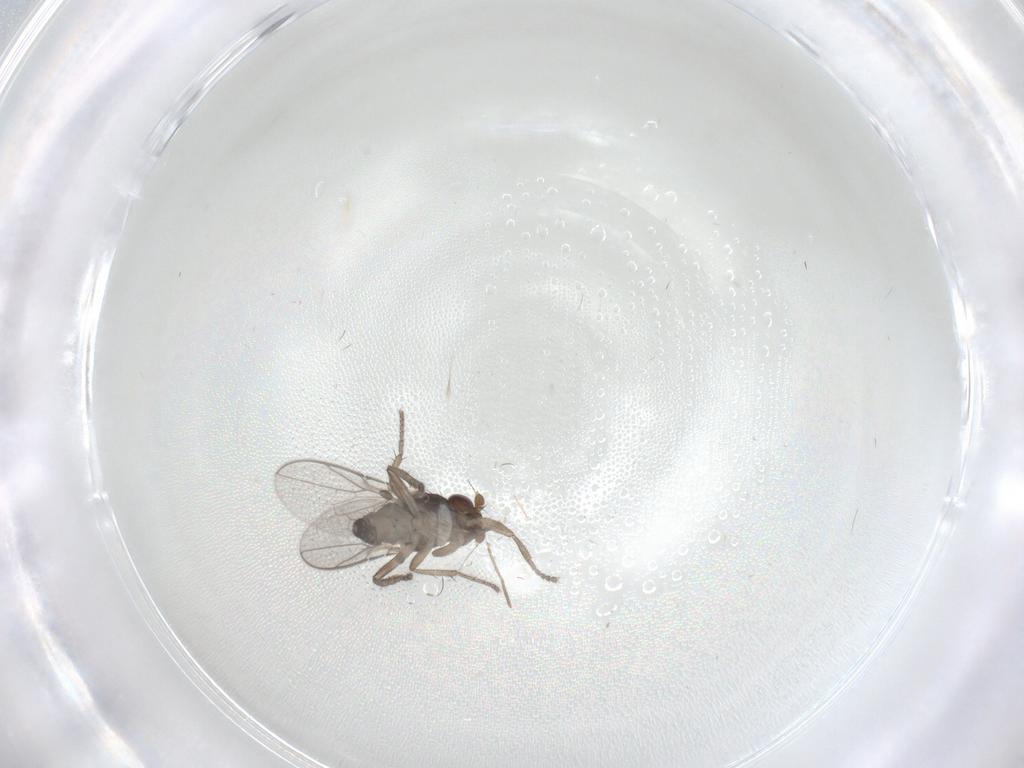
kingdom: Animalia
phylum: Arthropoda
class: Insecta
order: Diptera
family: Sphaeroceridae
